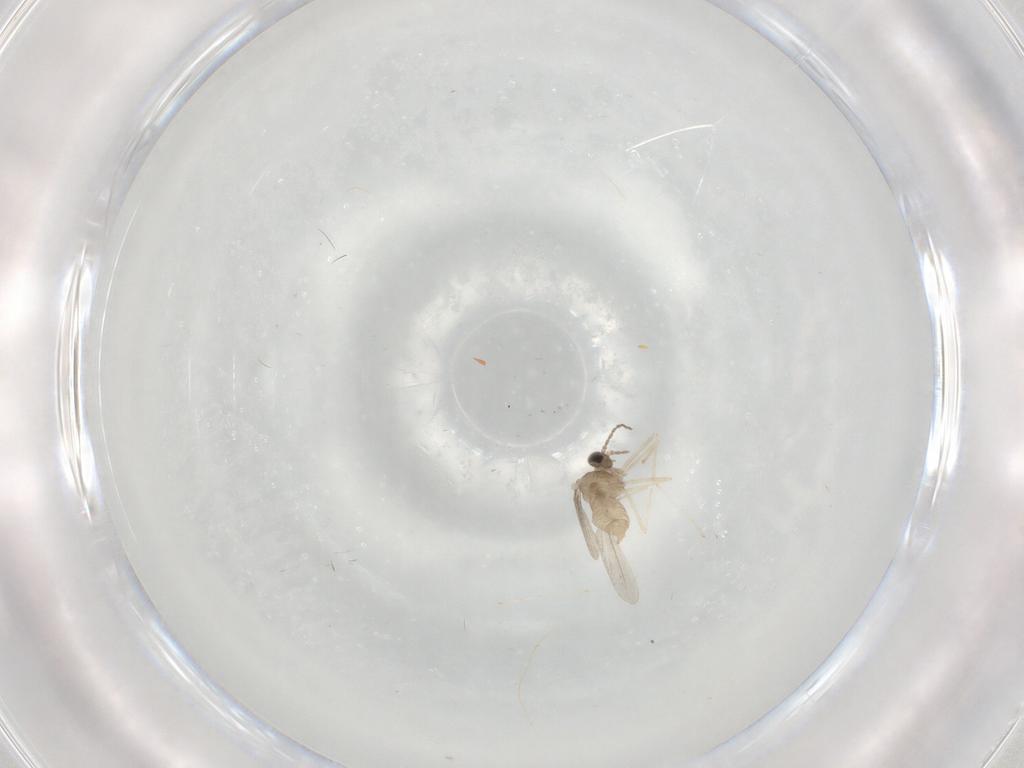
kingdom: Animalia
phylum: Arthropoda
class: Insecta
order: Diptera
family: Cecidomyiidae
